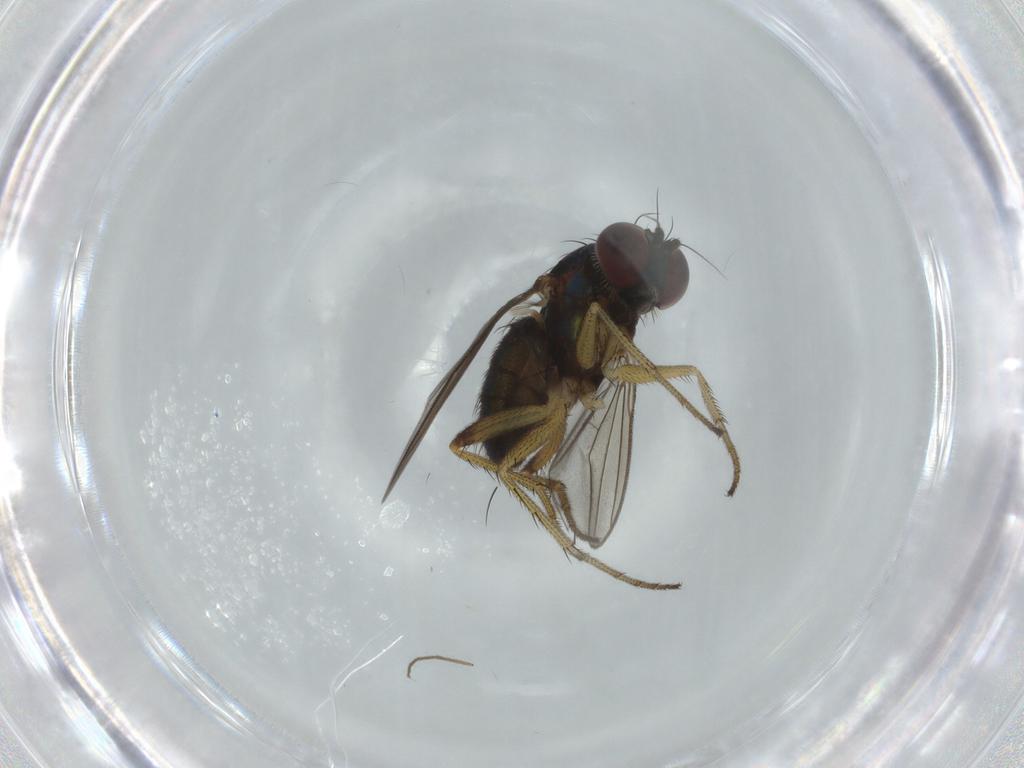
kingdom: Animalia
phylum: Arthropoda
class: Insecta
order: Diptera
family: Dolichopodidae
